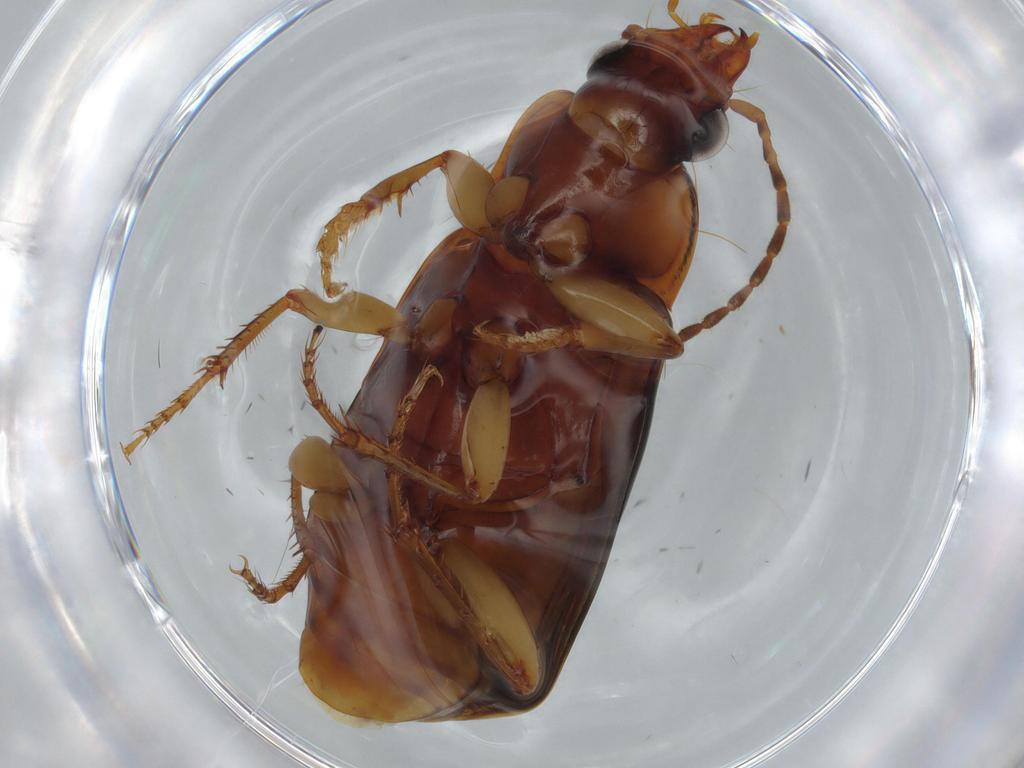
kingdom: Animalia
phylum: Arthropoda
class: Insecta
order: Coleoptera
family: Carabidae
